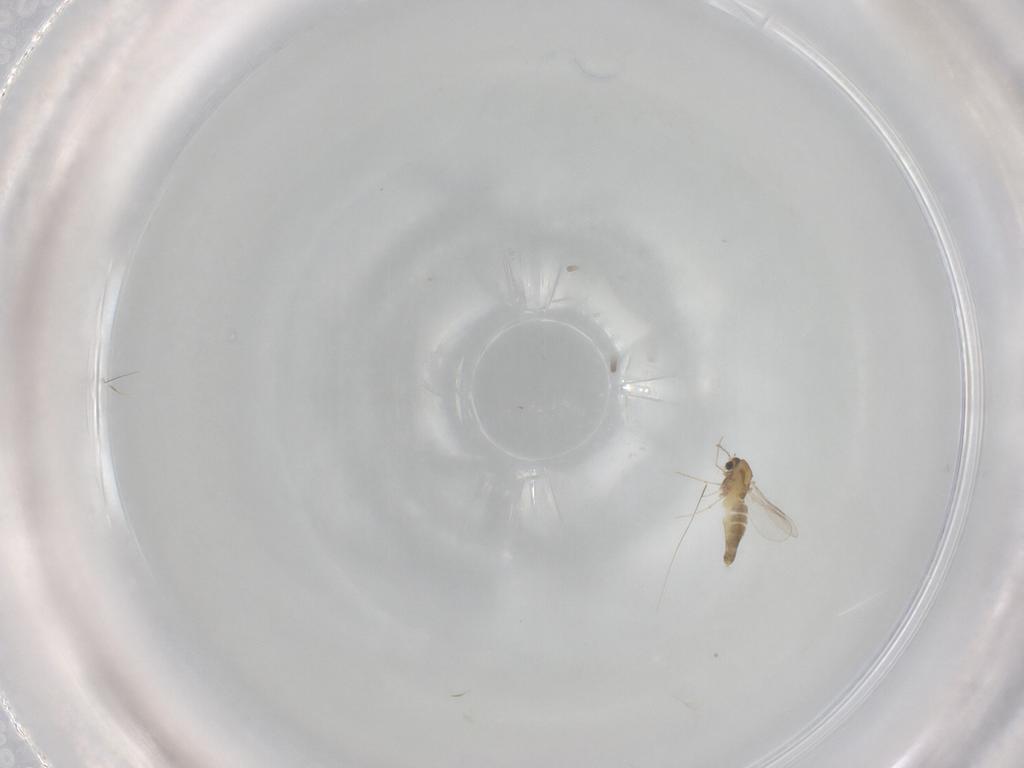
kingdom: Animalia
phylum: Arthropoda
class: Insecta
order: Diptera
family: Chironomidae
